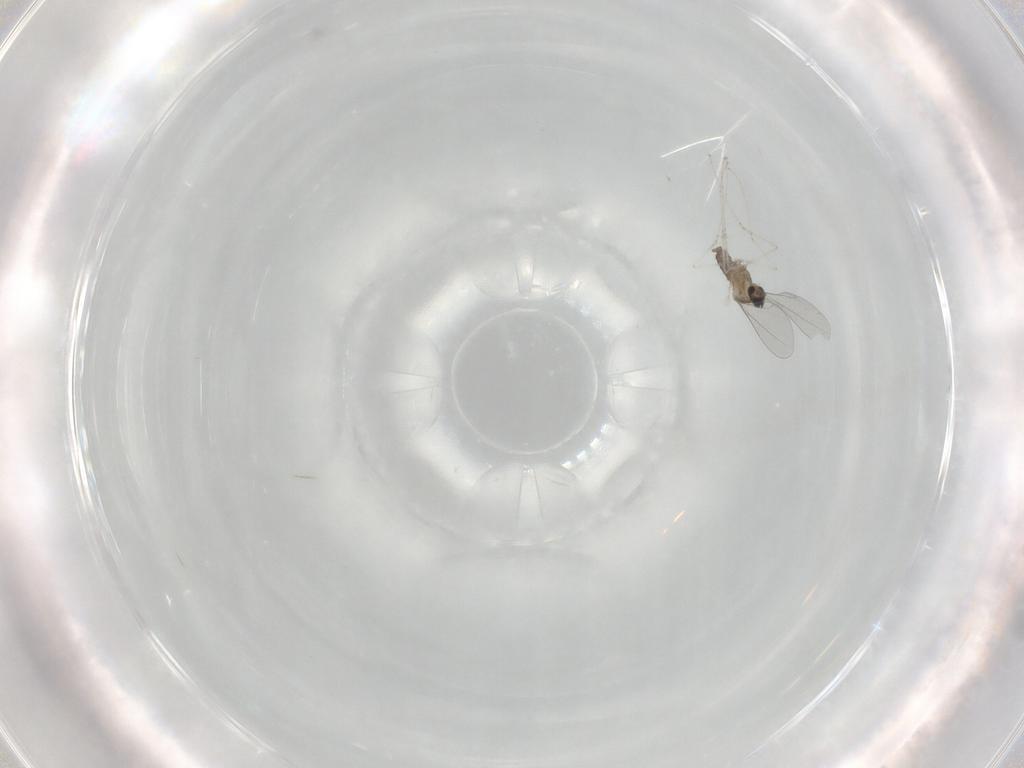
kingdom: Animalia
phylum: Arthropoda
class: Insecta
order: Diptera
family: Cecidomyiidae
